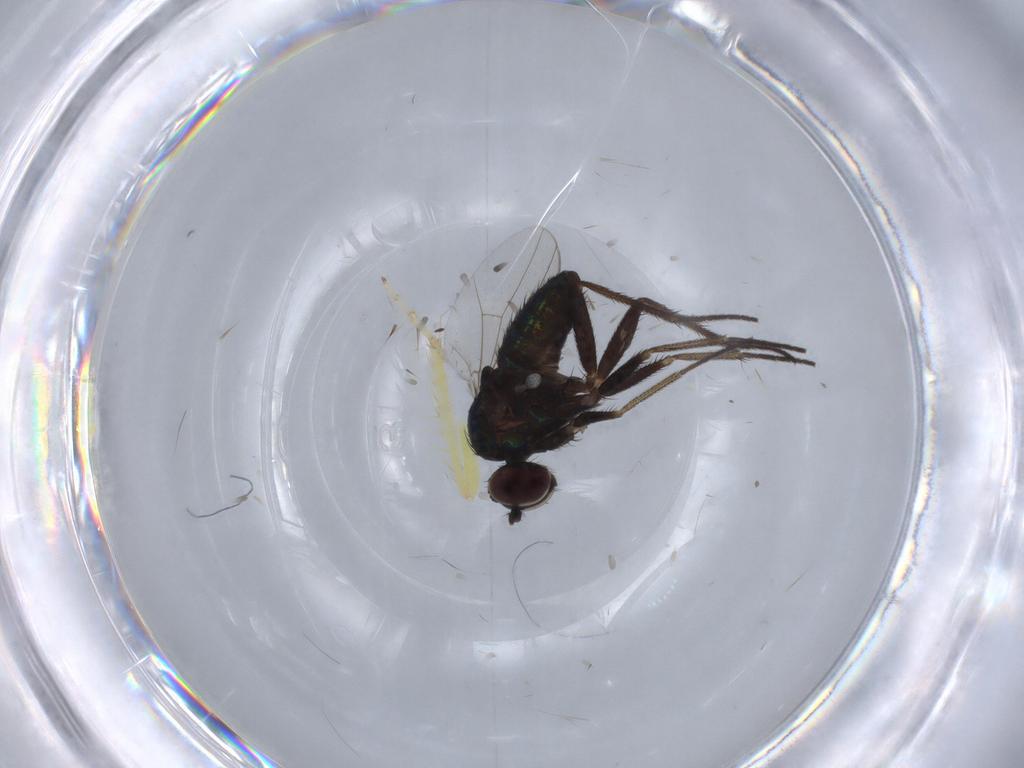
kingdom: Animalia
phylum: Arthropoda
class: Insecta
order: Diptera
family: Dolichopodidae
